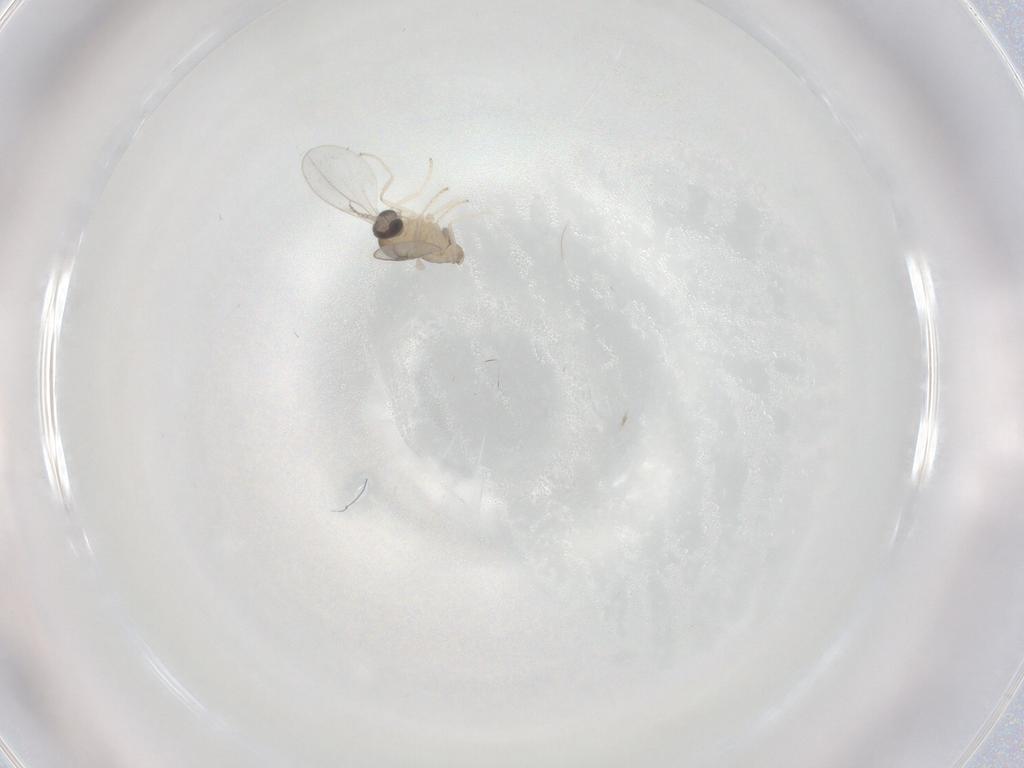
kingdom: Animalia
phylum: Arthropoda
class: Insecta
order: Diptera
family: Cecidomyiidae
